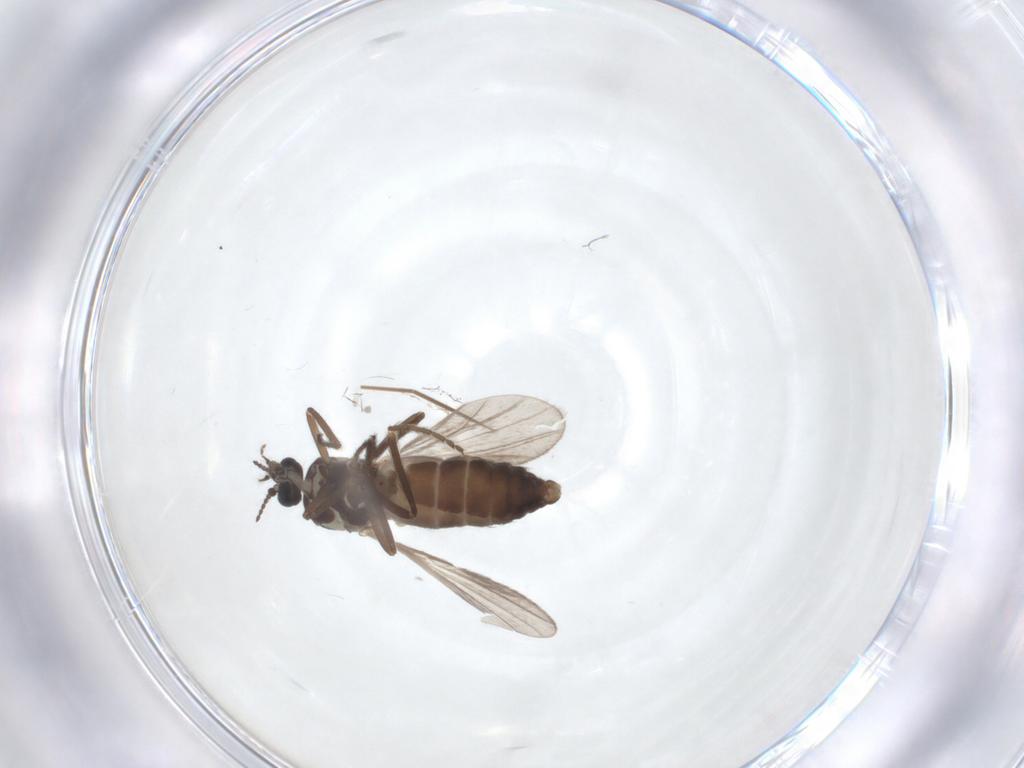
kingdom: Animalia
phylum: Arthropoda
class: Insecta
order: Diptera
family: Ceratopogonidae
